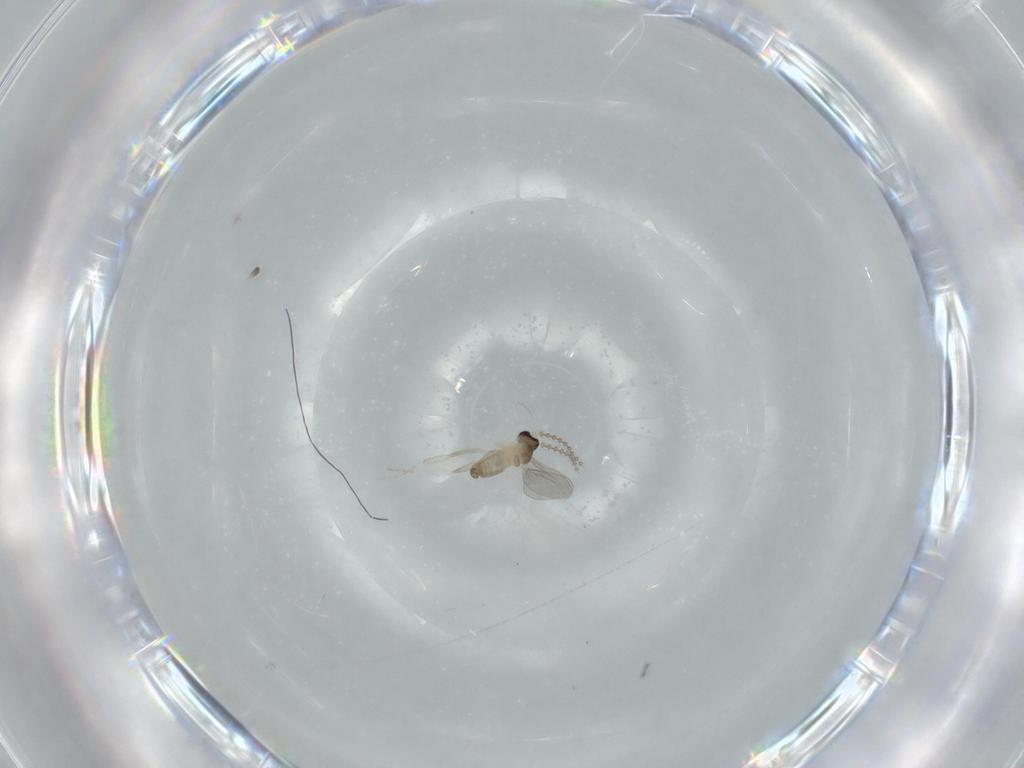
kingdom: Animalia
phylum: Arthropoda
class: Insecta
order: Diptera
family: Cecidomyiidae
